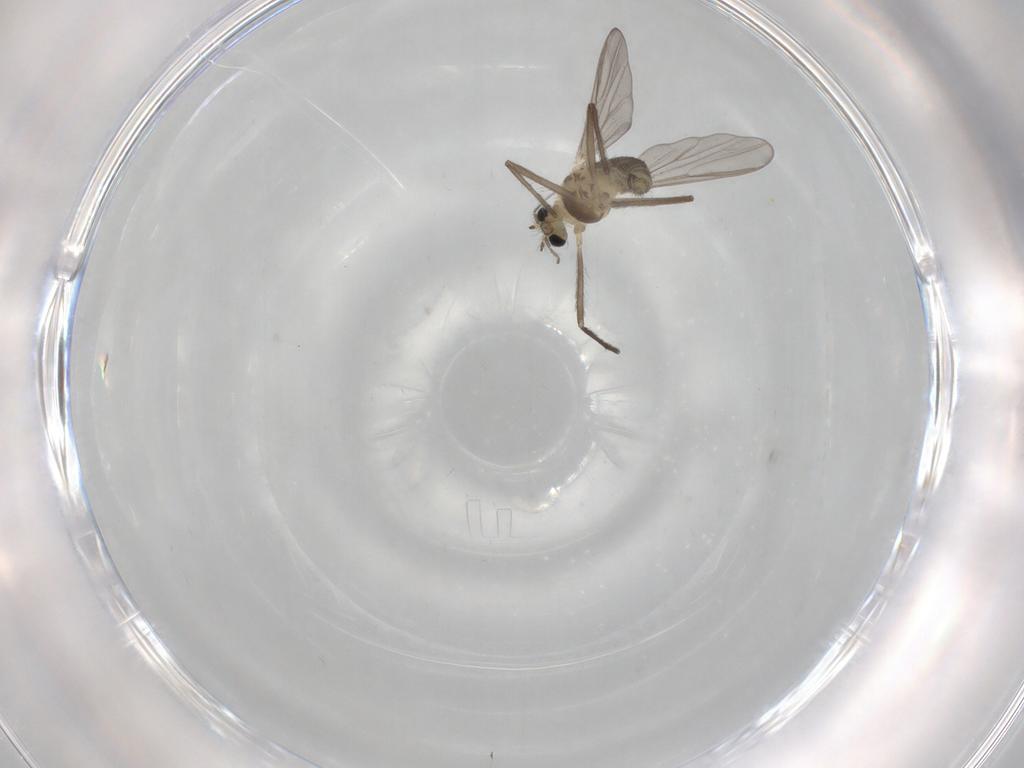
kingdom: Animalia
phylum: Arthropoda
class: Insecta
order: Diptera
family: Chironomidae
